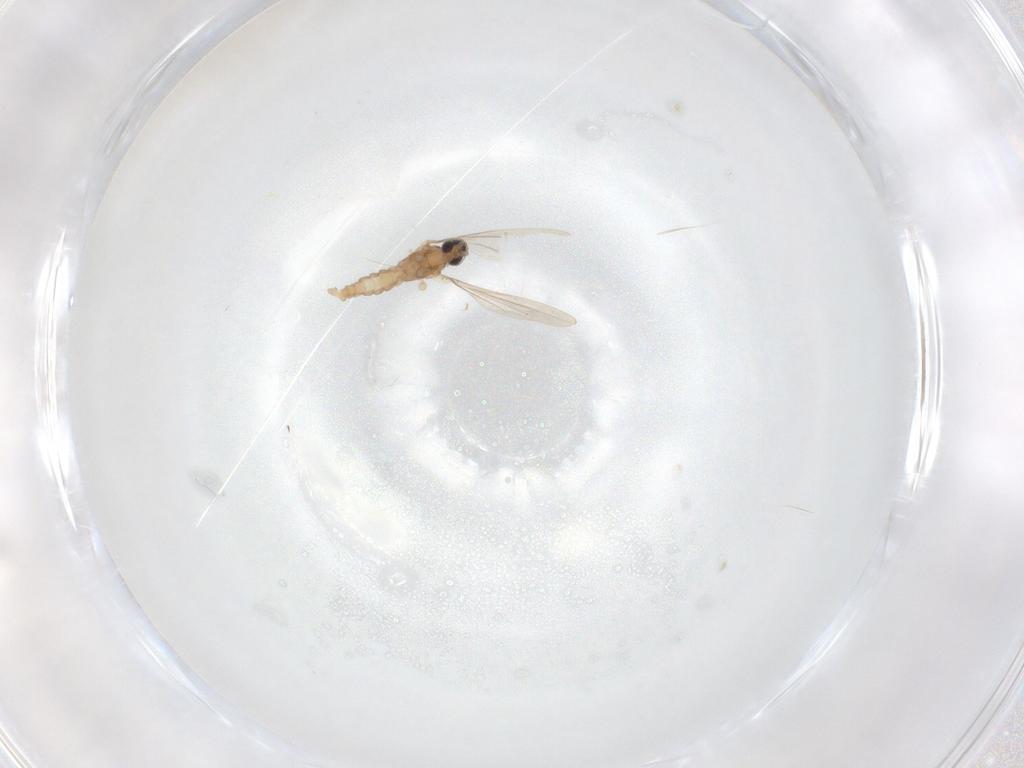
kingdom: Animalia
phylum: Arthropoda
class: Insecta
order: Diptera
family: Cecidomyiidae
